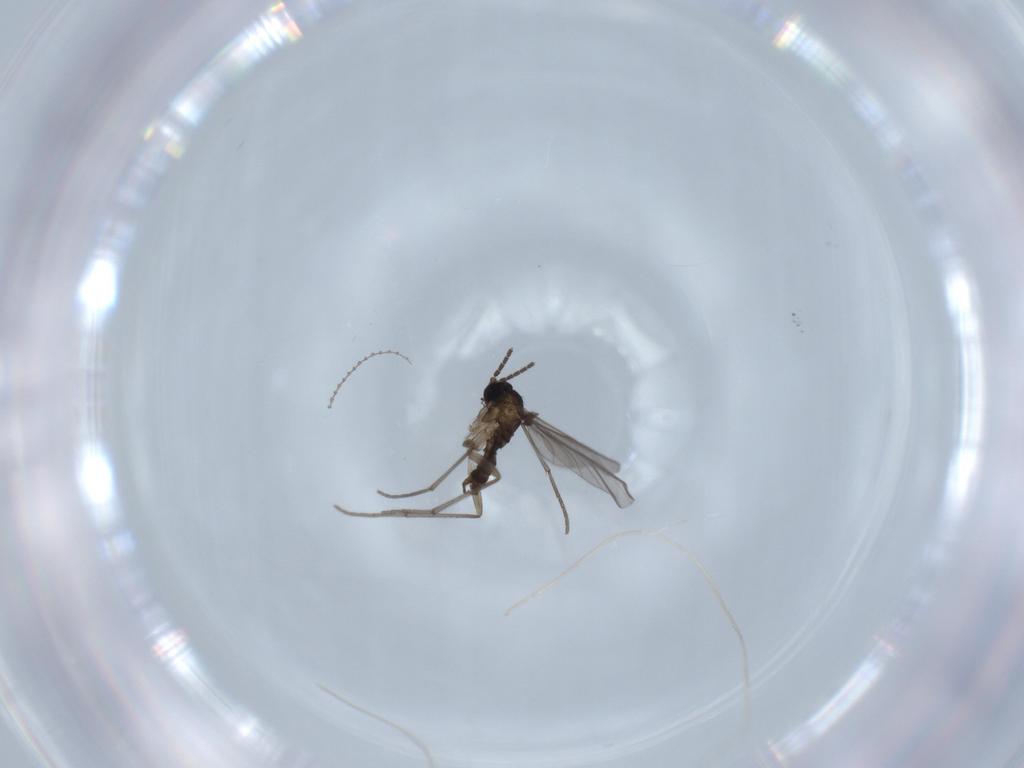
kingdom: Animalia
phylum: Arthropoda
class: Insecta
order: Diptera
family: Sciaridae
